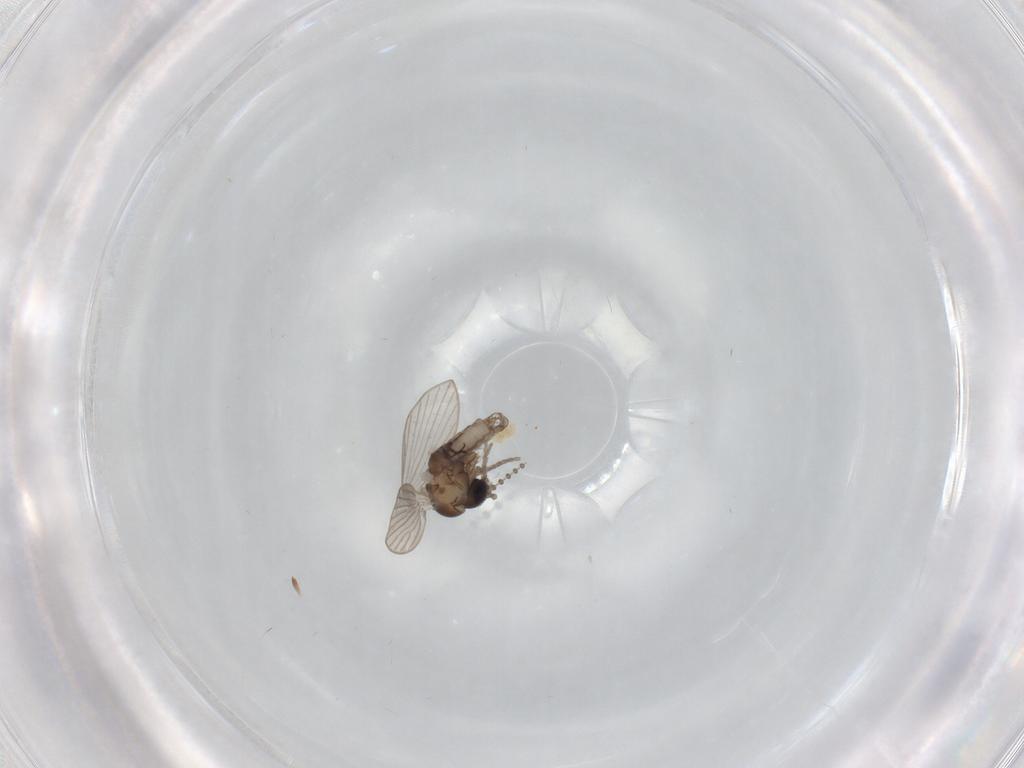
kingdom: Animalia
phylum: Arthropoda
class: Insecta
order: Diptera
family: Psychodidae
